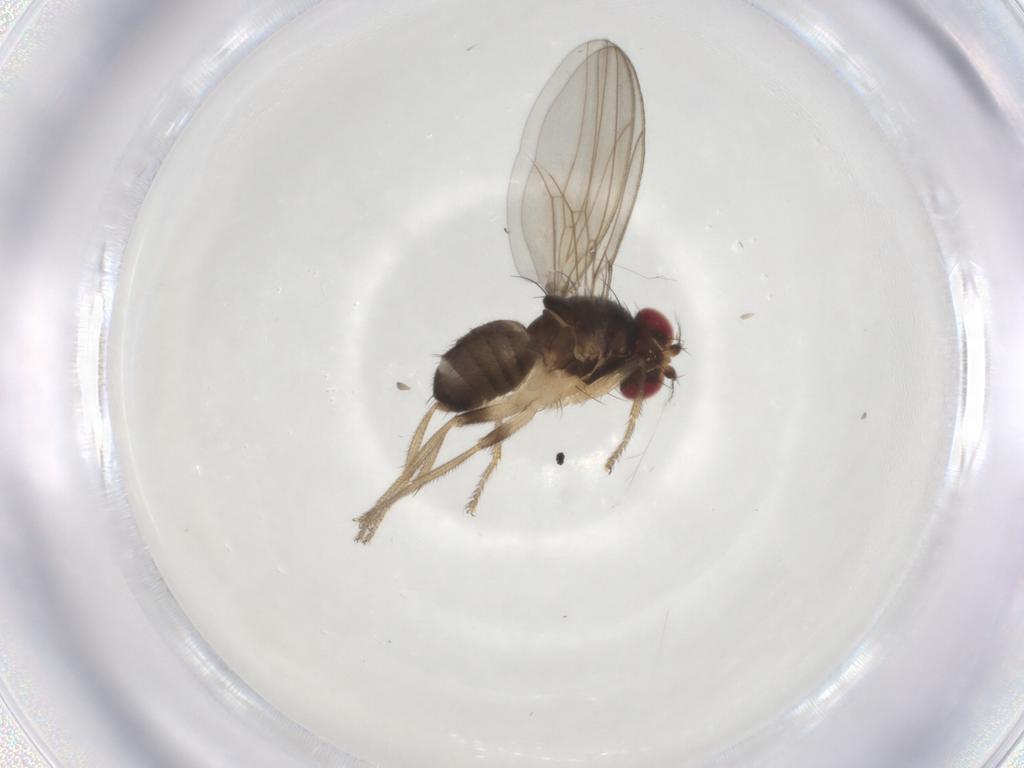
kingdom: Animalia
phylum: Arthropoda
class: Insecta
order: Diptera
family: Drosophilidae
